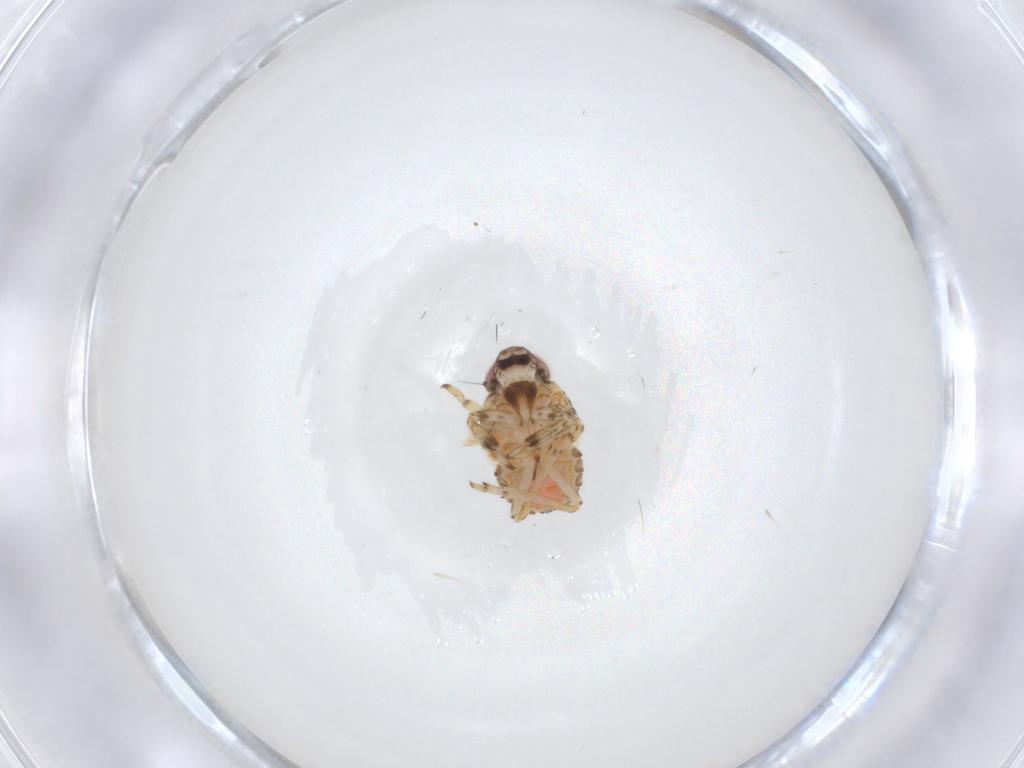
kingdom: Animalia
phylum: Arthropoda
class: Insecta
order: Hemiptera
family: Issidae
